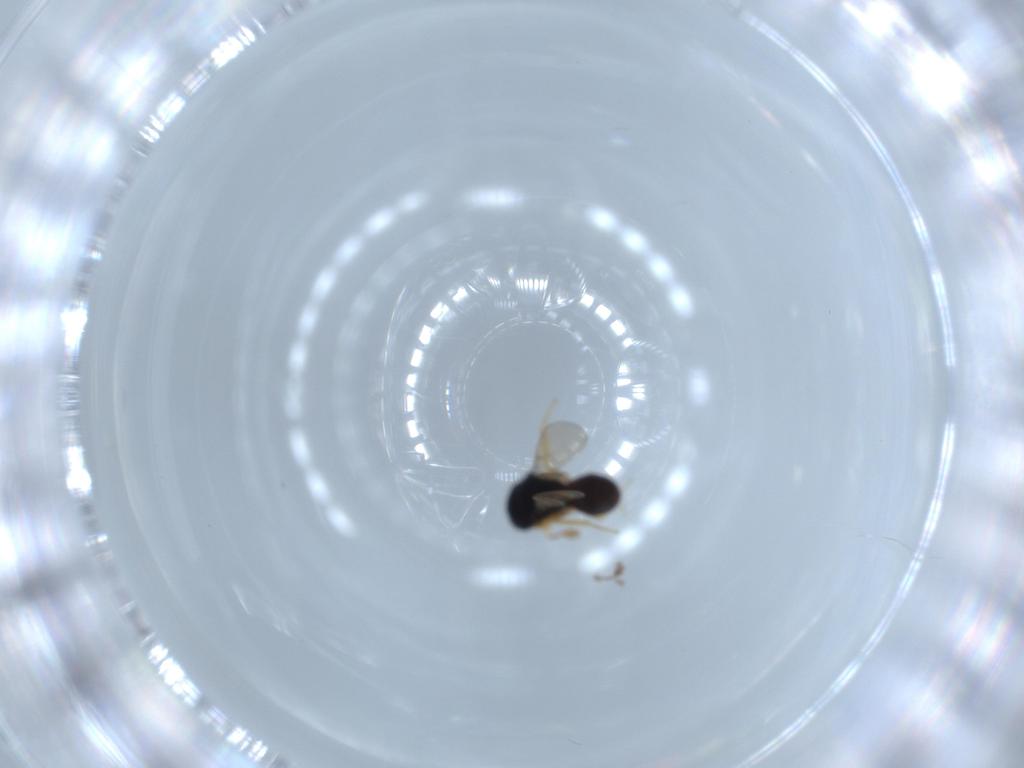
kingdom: Animalia
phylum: Arthropoda
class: Insecta
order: Hymenoptera
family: Scelionidae
